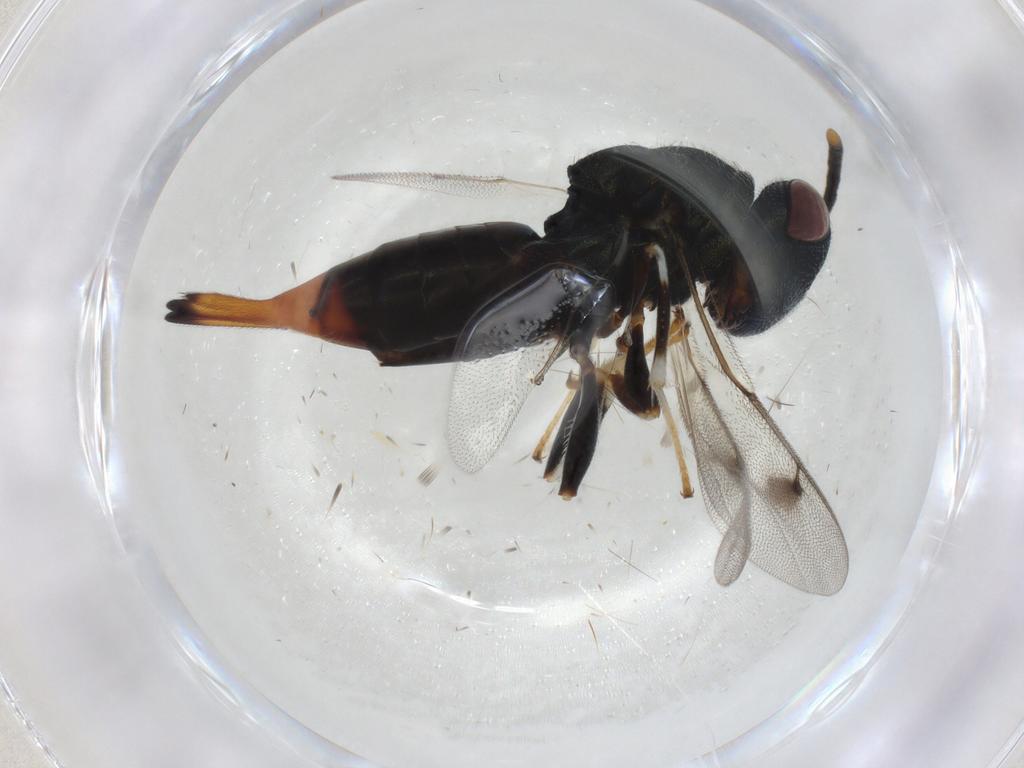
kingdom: Animalia
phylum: Arthropoda
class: Insecta
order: Hymenoptera
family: Pteromalidae
